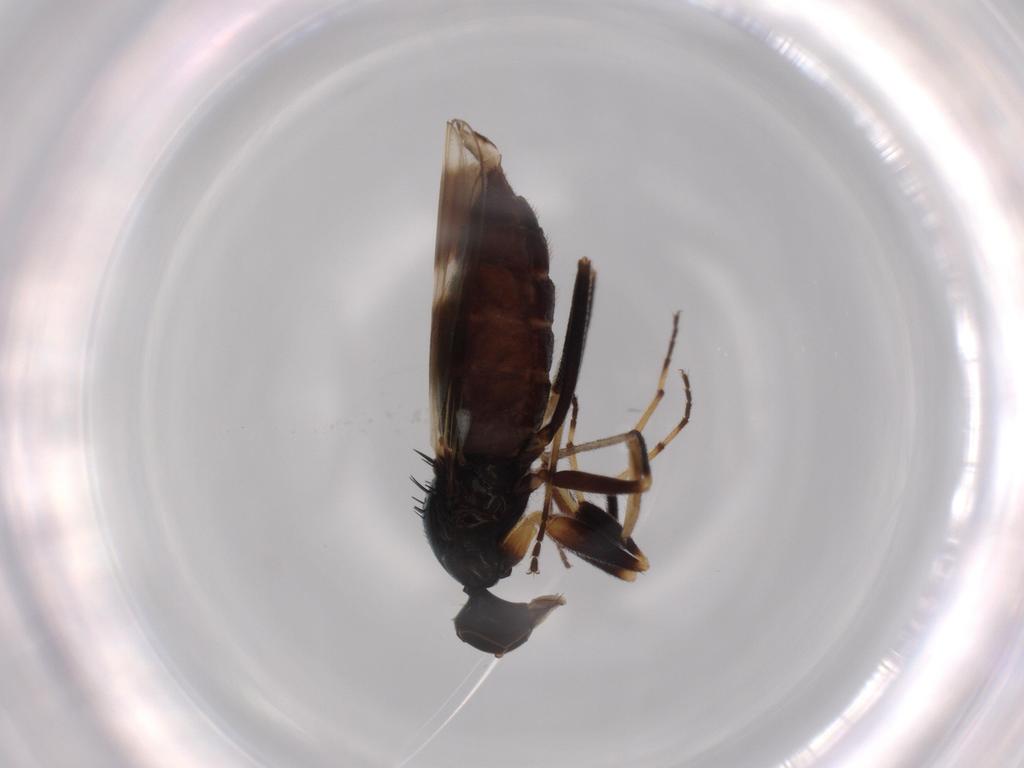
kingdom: Animalia
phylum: Arthropoda
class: Insecta
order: Diptera
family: Hybotidae
